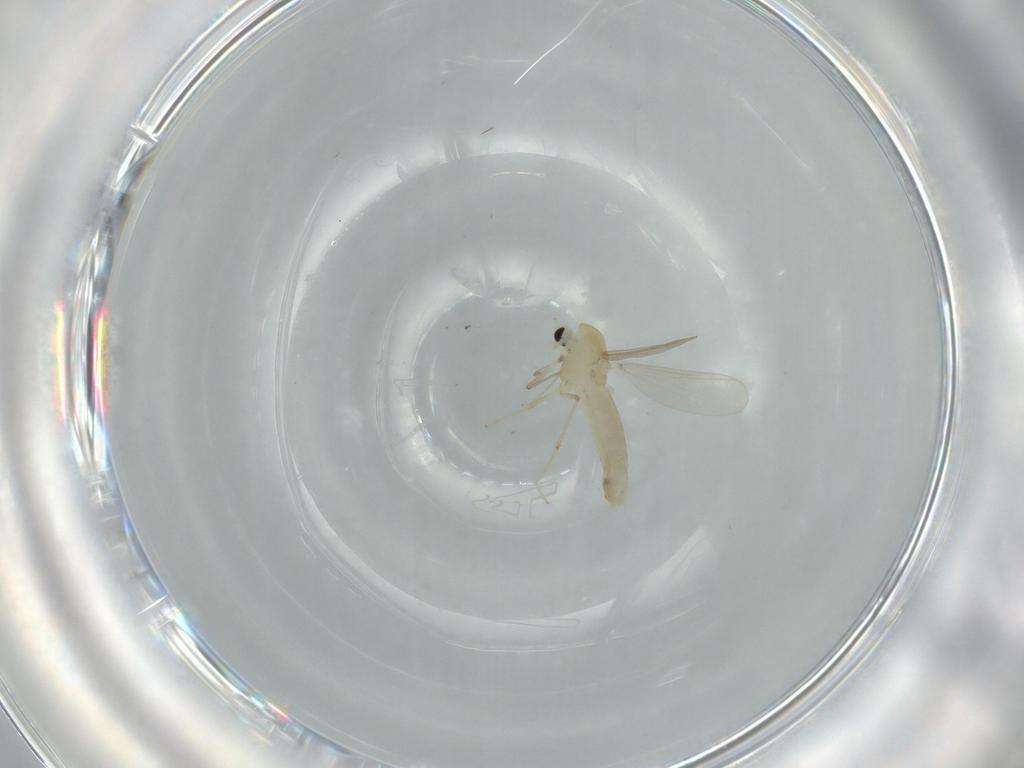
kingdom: Animalia
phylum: Arthropoda
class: Insecta
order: Diptera
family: Chironomidae
